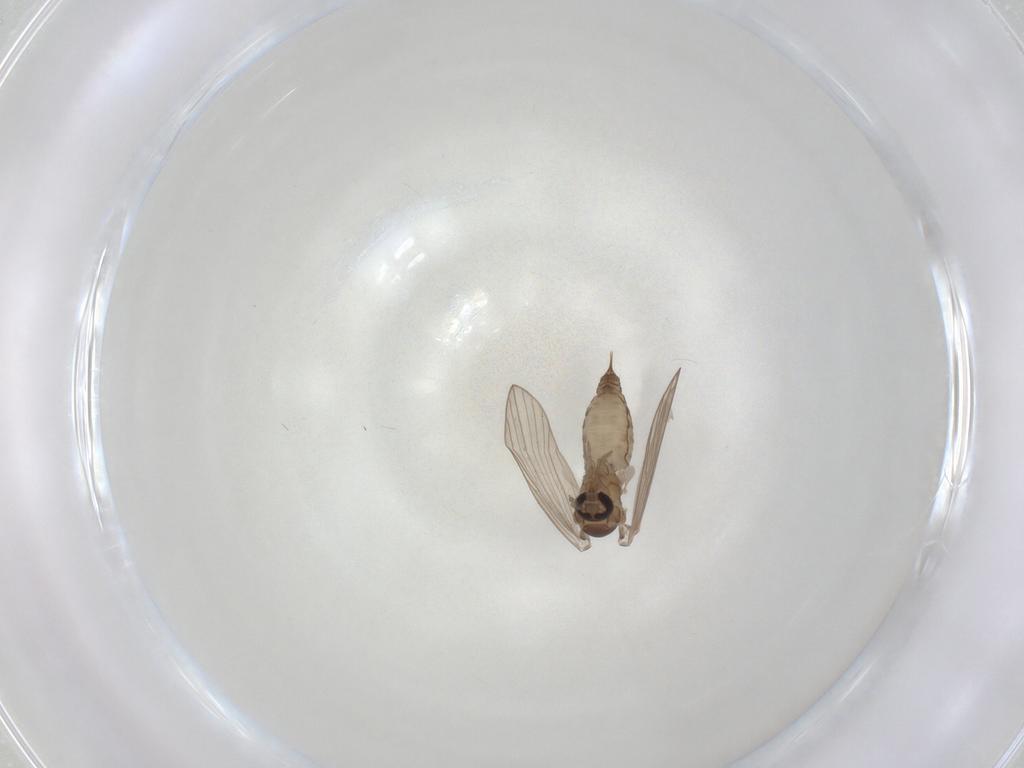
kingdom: Animalia
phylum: Arthropoda
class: Insecta
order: Diptera
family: Psychodidae
